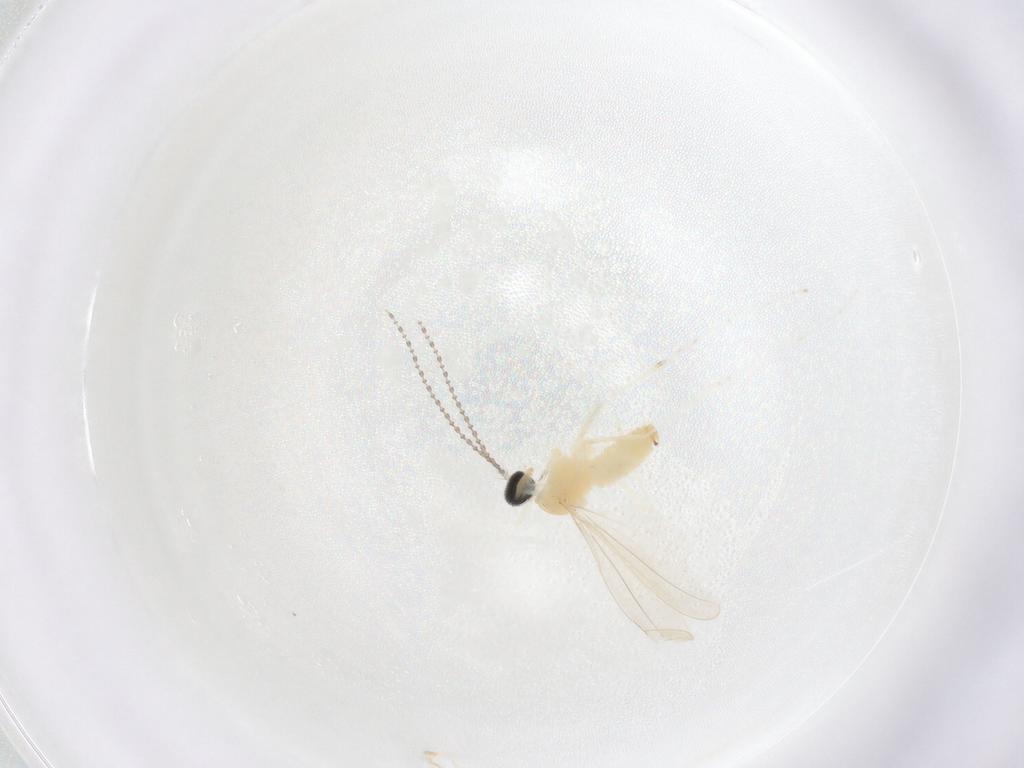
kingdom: Animalia
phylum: Arthropoda
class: Insecta
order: Diptera
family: Cecidomyiidae
